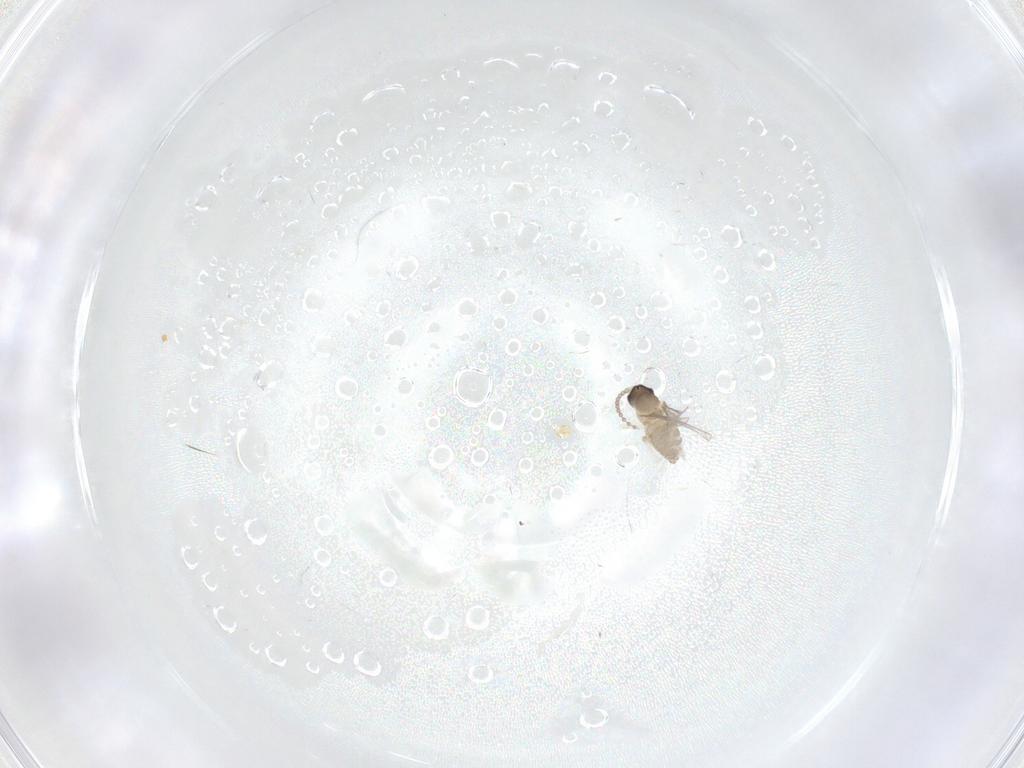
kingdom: Animalia
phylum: Arthropoda
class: Insecta
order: Diptera
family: Cecidomyiidae
